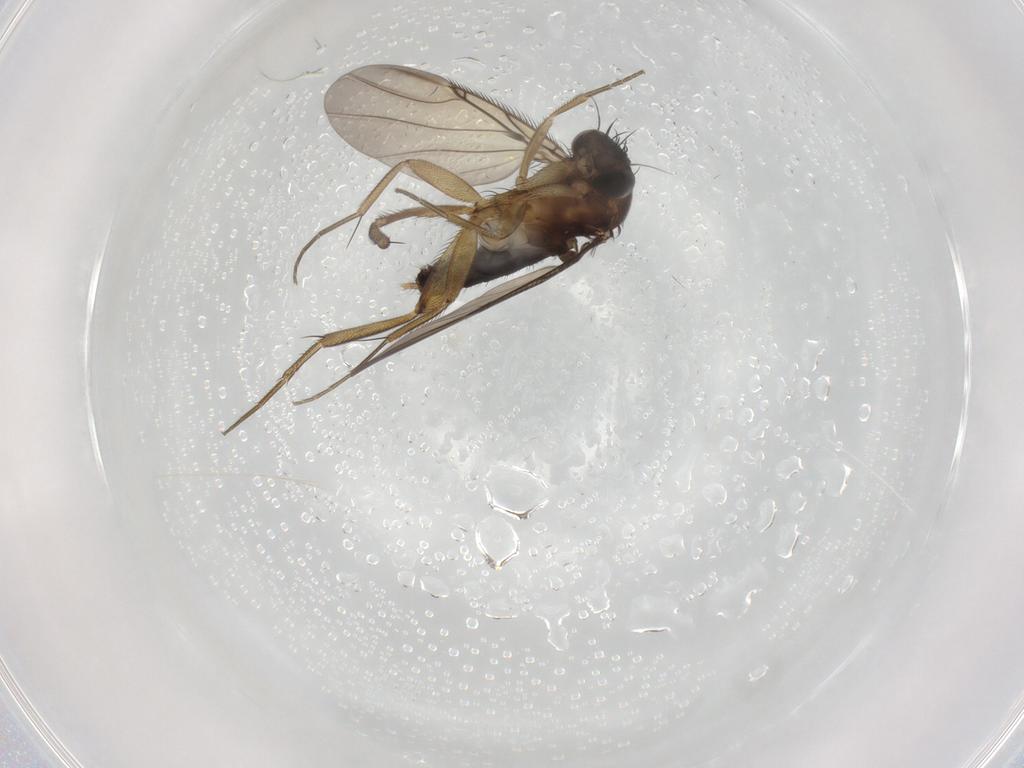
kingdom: Animalia
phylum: Arthropoda
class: Insecta
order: Diptera
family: Phoridae
